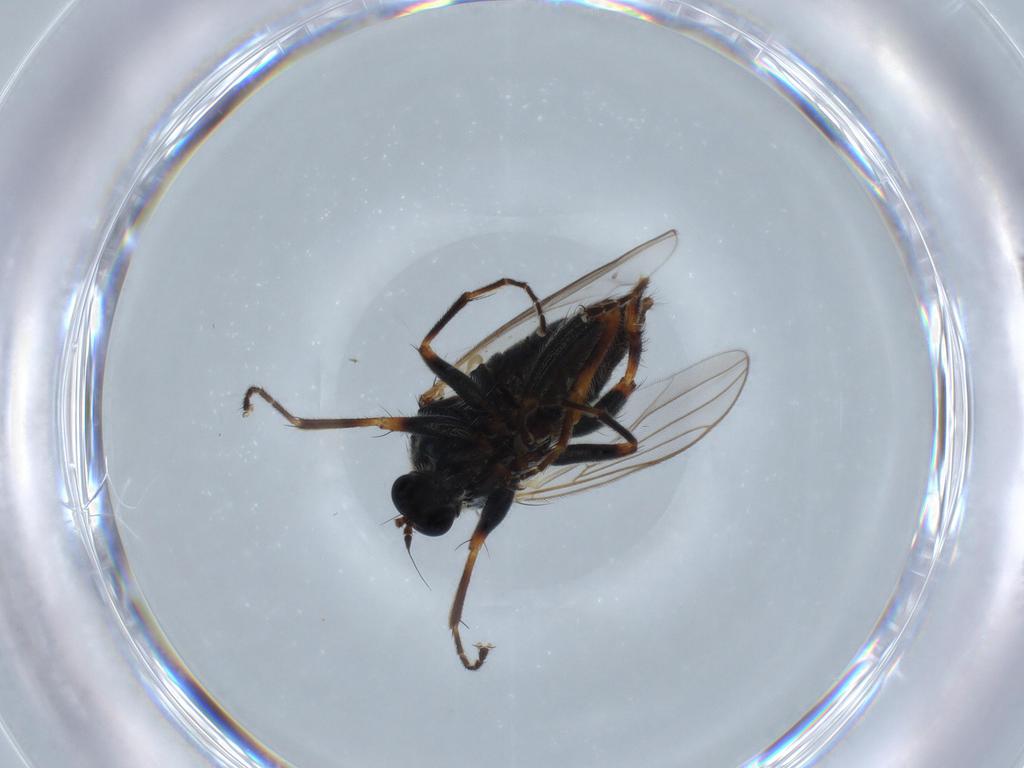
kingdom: Animalia
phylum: Arthropoda
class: Insecta
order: Diptera
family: Hybotidae
